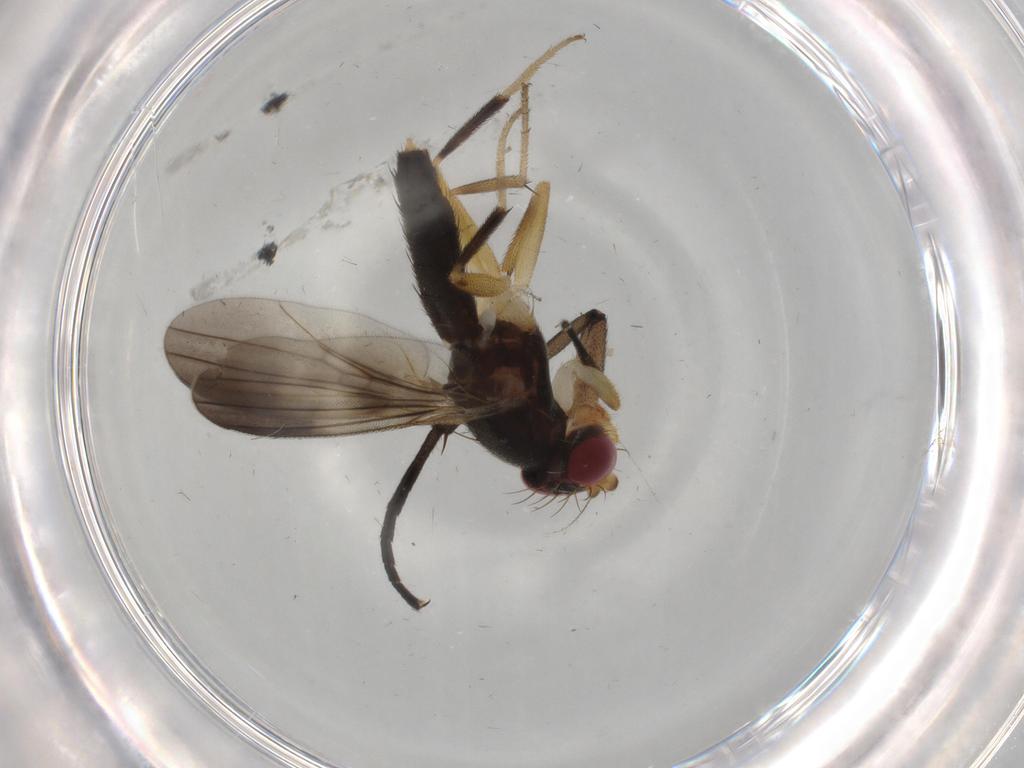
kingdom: Animalia
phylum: Arthropoda
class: Insecta
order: Diptera
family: Clusiidae
